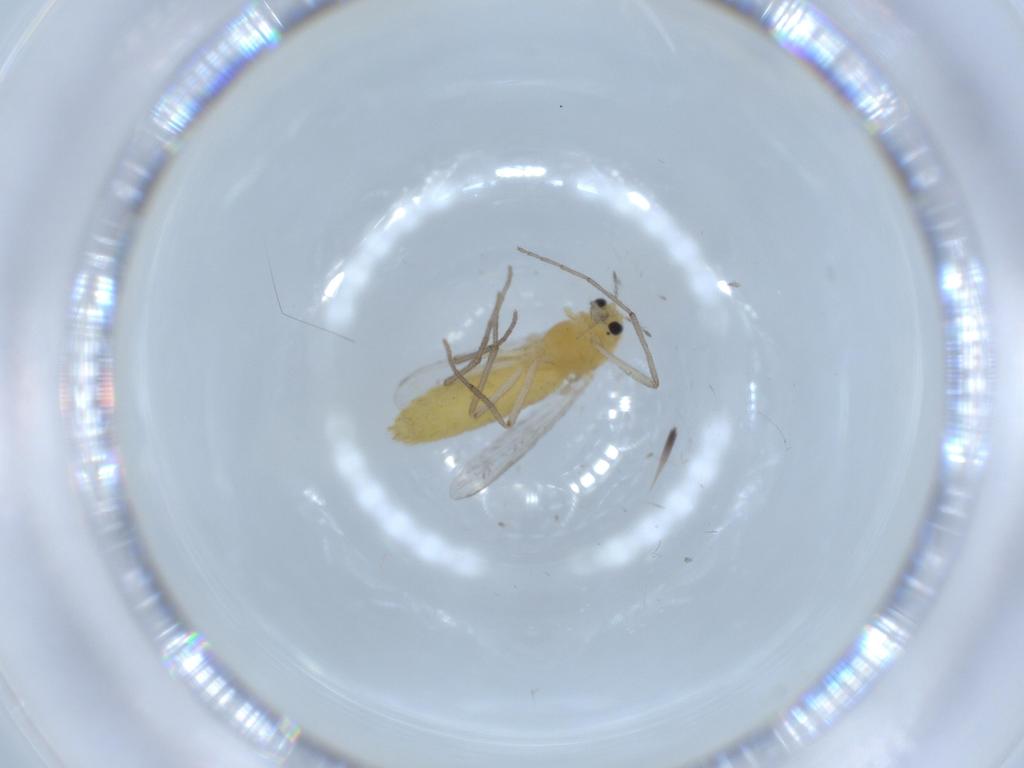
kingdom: Animalia
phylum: Arthropoda
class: Insecta
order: Diptera
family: Chironomidae
